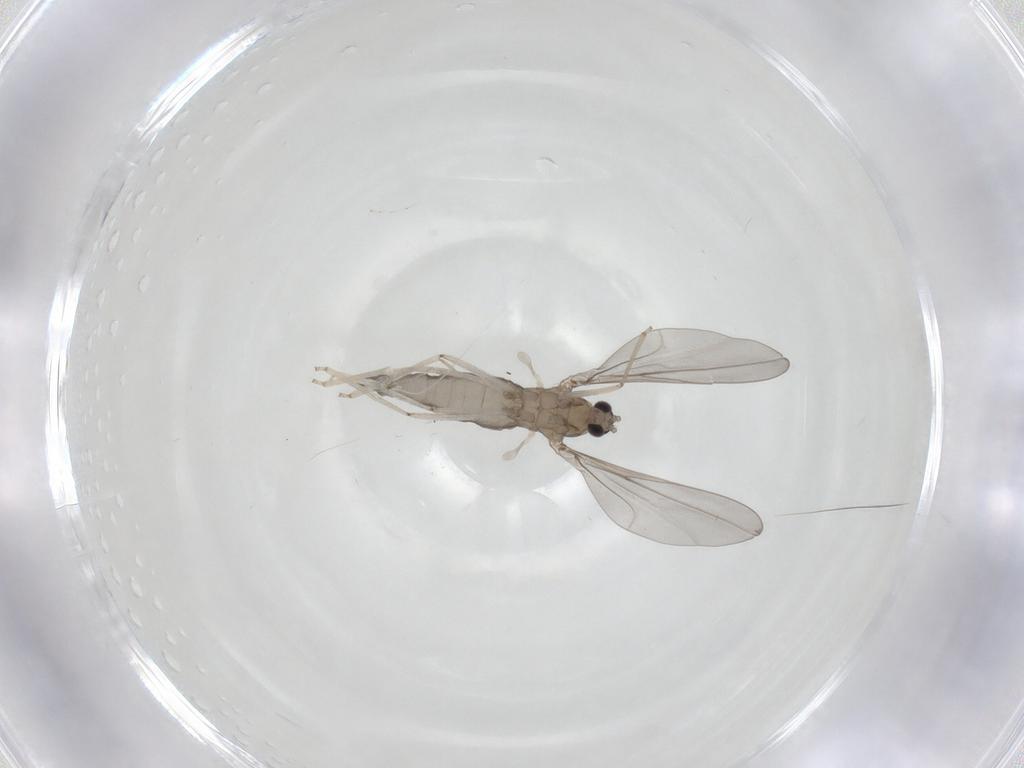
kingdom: Animalia
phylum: Arthropoda
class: Insecta
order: Diptera
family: Cecidomyiidae
